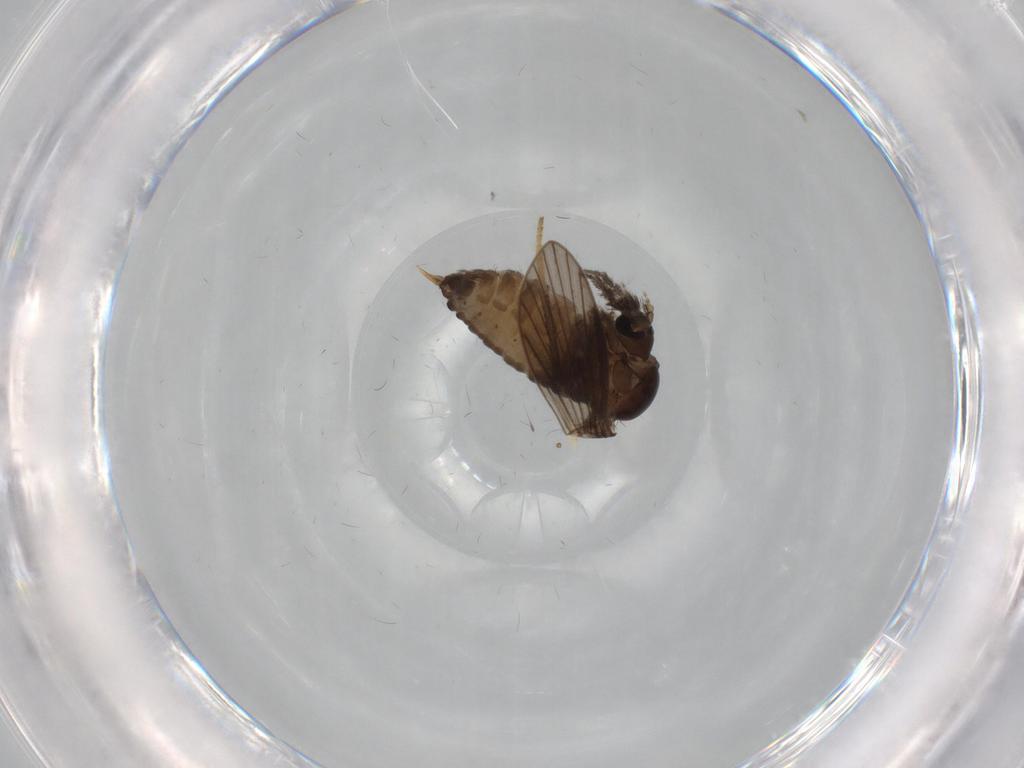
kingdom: Animalia
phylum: Arthropoda
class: Insecta
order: Diptera
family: Psychodidae
